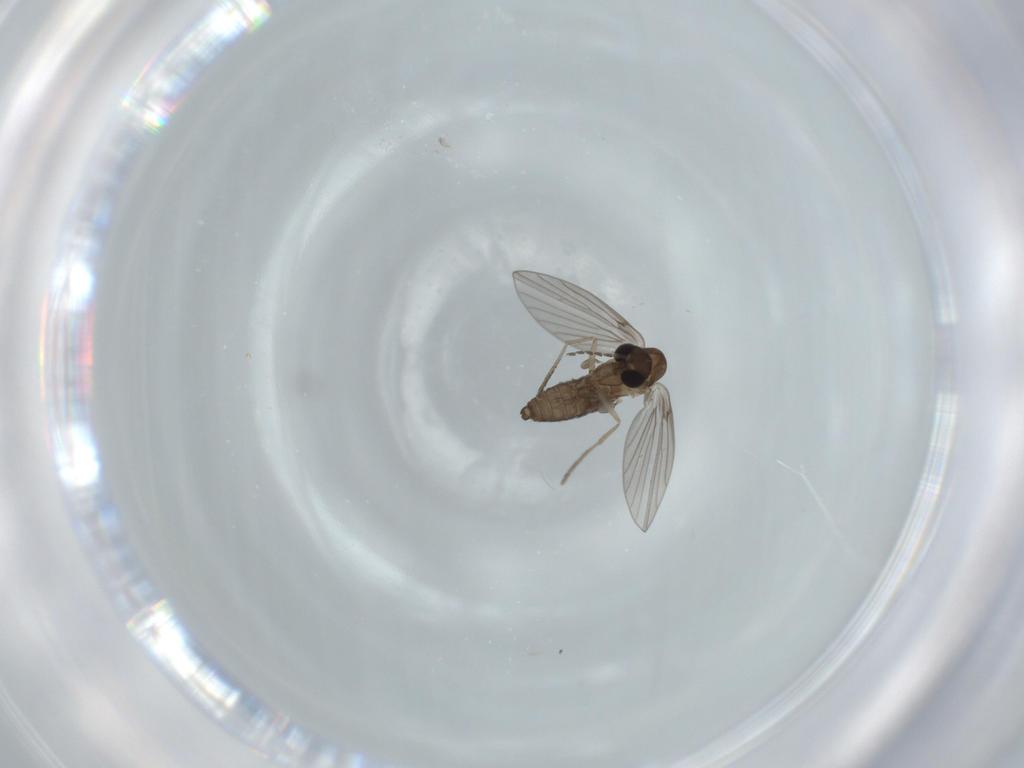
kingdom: Animalia
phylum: Arthropoda
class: Insecta
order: Diptera
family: Psychodidae
